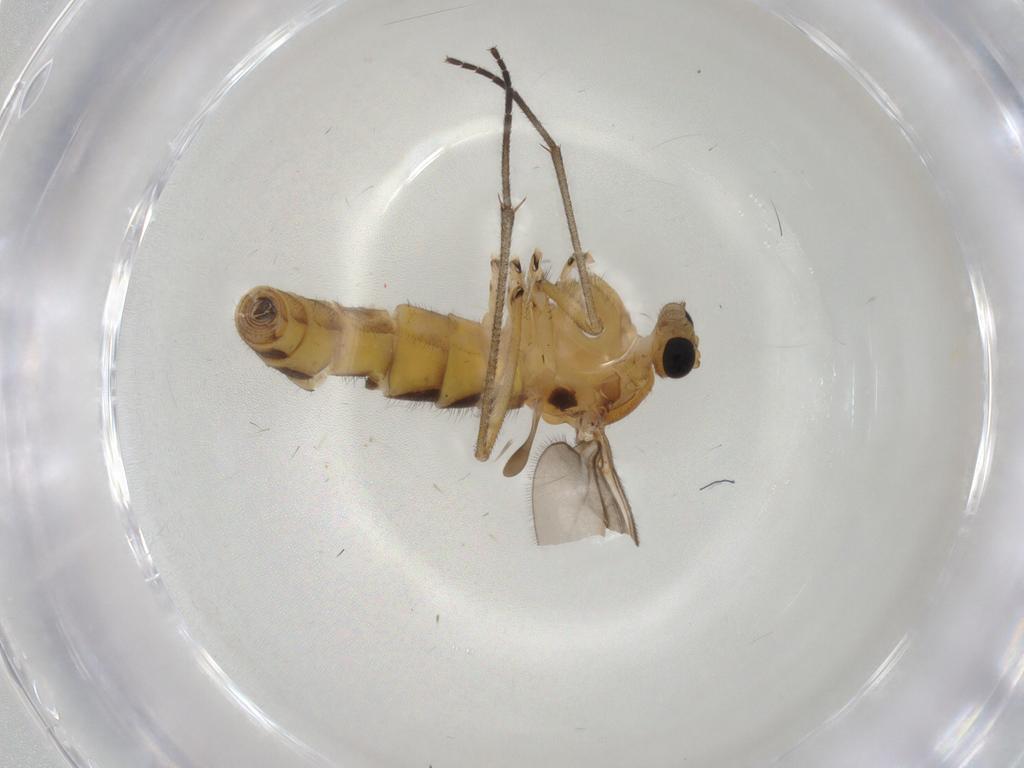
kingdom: Animalia
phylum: Arthropoda
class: Insecta
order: Diptera
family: Sciaridae
